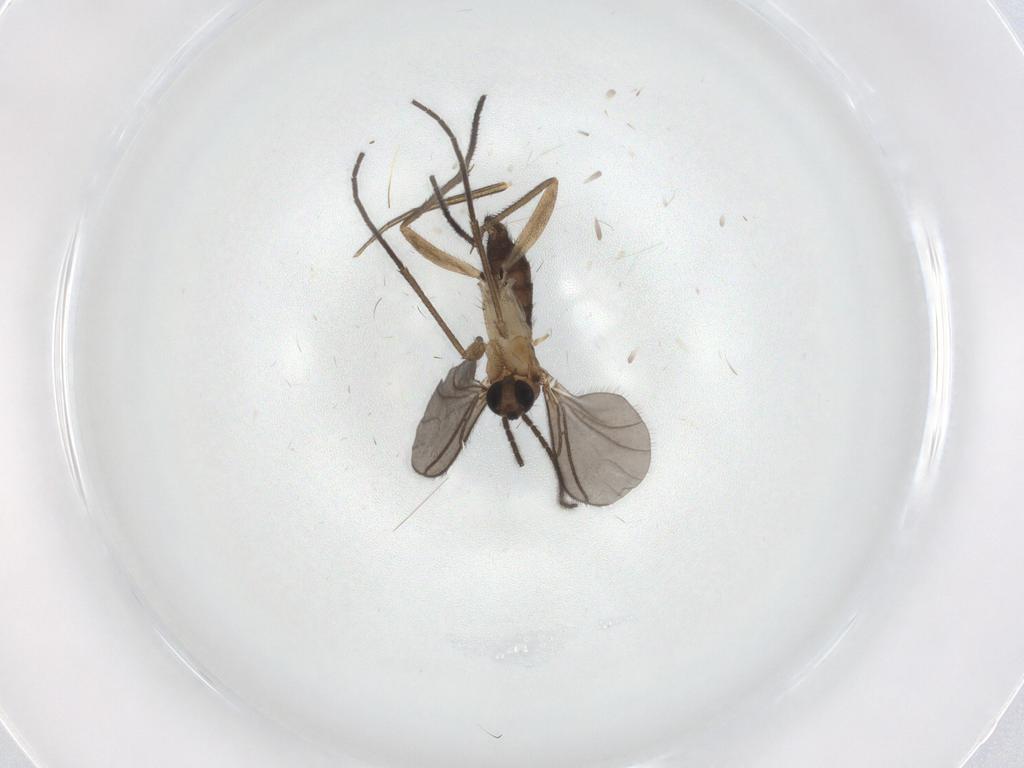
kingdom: Animalia
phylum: Arthropoda
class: Insecta
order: Diptera
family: Sciaridae
